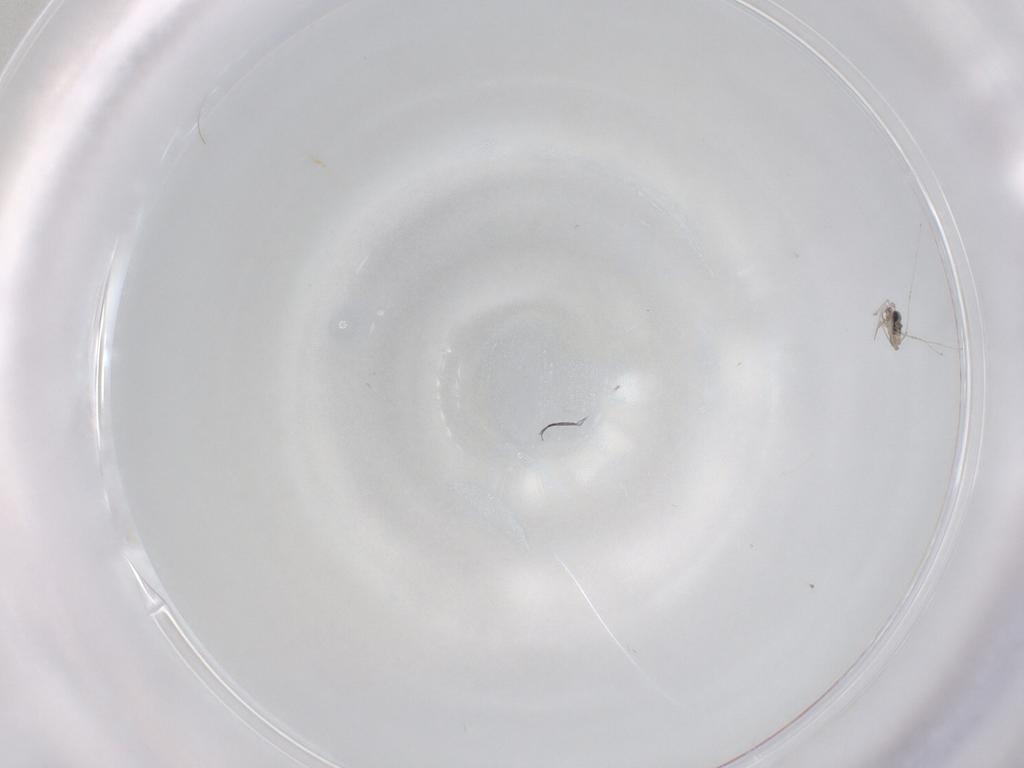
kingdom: Animalia
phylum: Arthropoda
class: Insecta
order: Diptera
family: Cecidomyiidae
